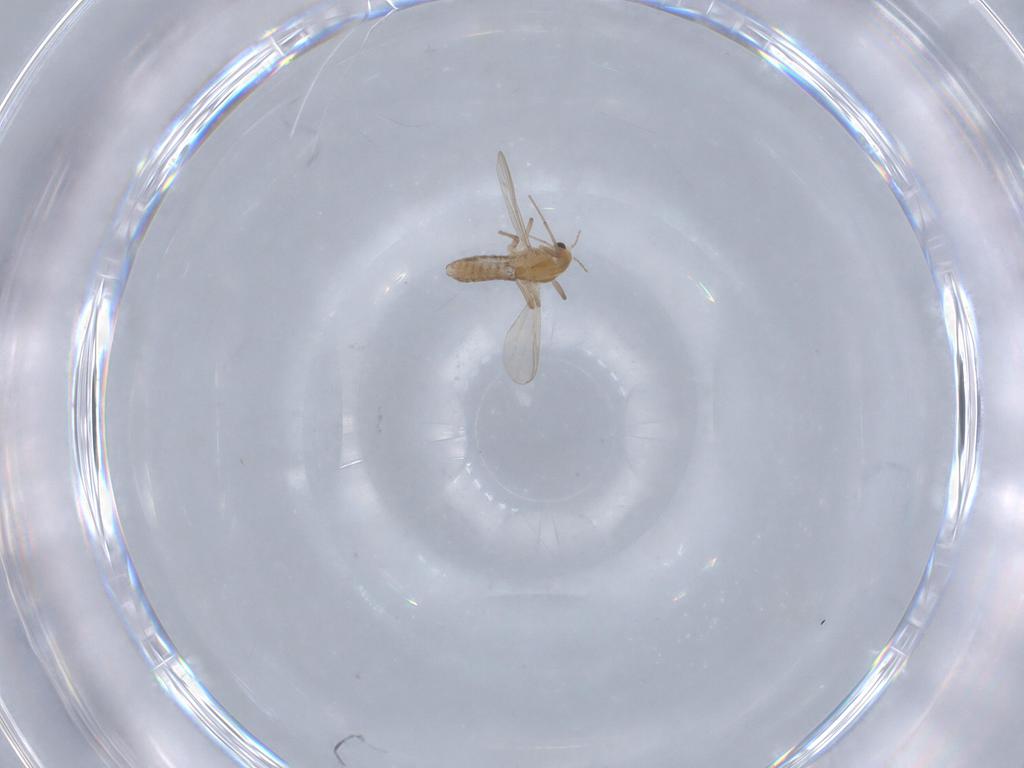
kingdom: Animalia
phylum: Arthropoda
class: Insecta
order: Diptera
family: Chironomidae
